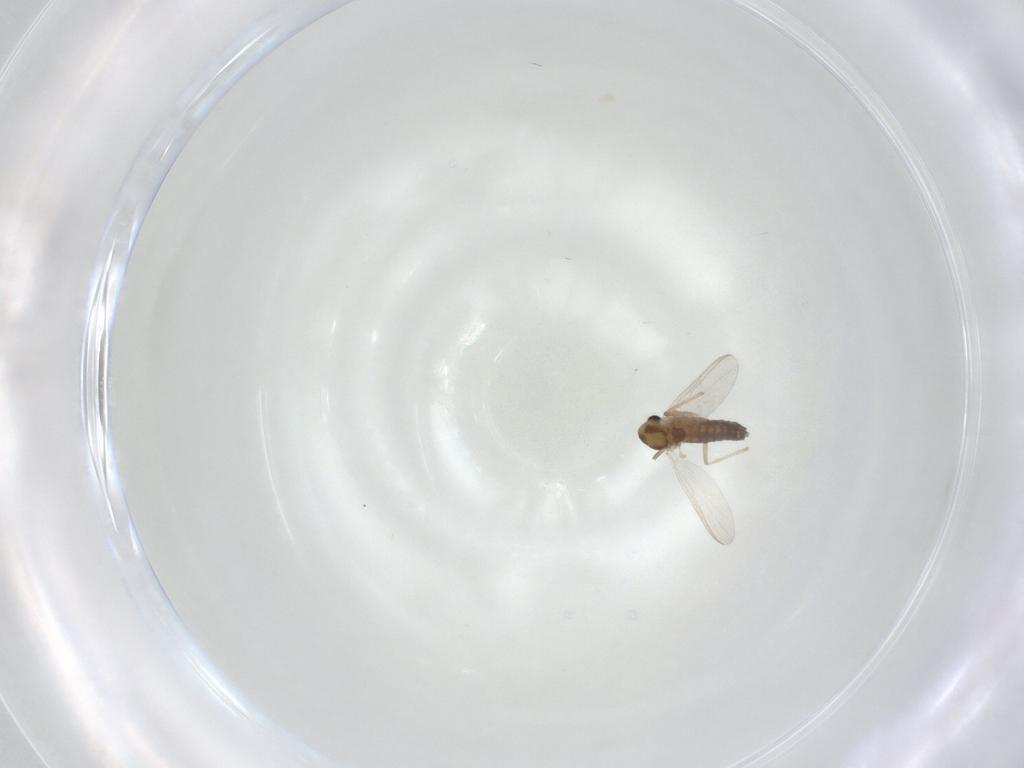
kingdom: Animalia
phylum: Arthropoda
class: Insecta
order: Diptera
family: Chironomidae
